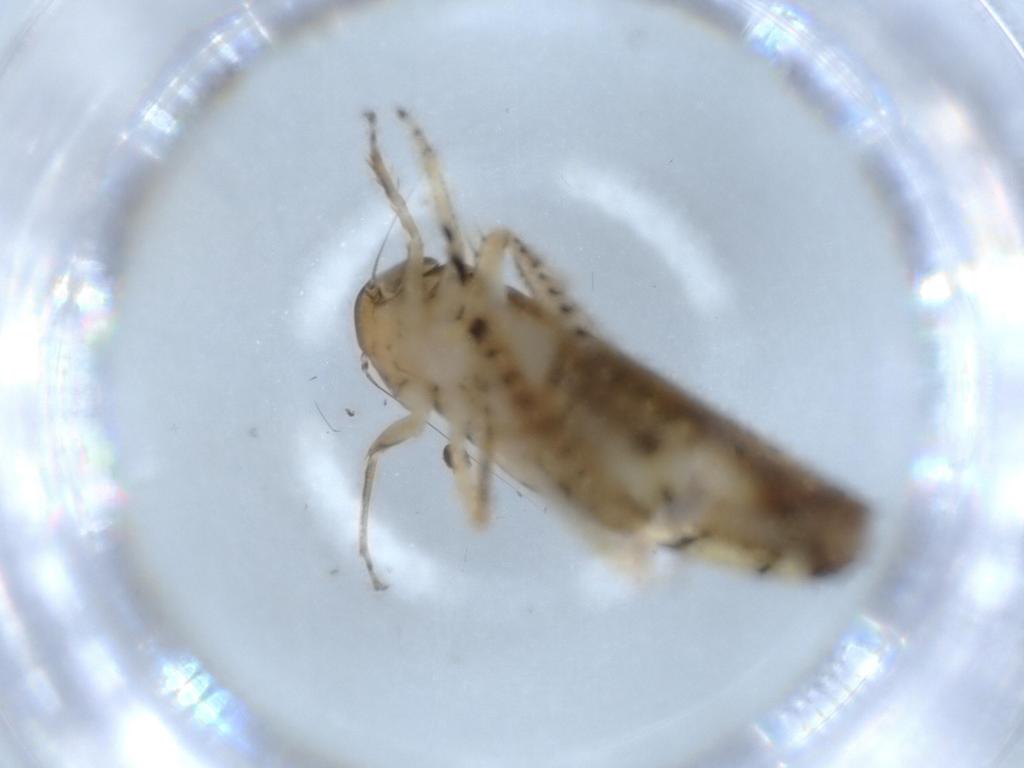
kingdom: Animalia
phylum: Arthropoda
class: Insecta
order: Hemiptera
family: Cicadellidae
